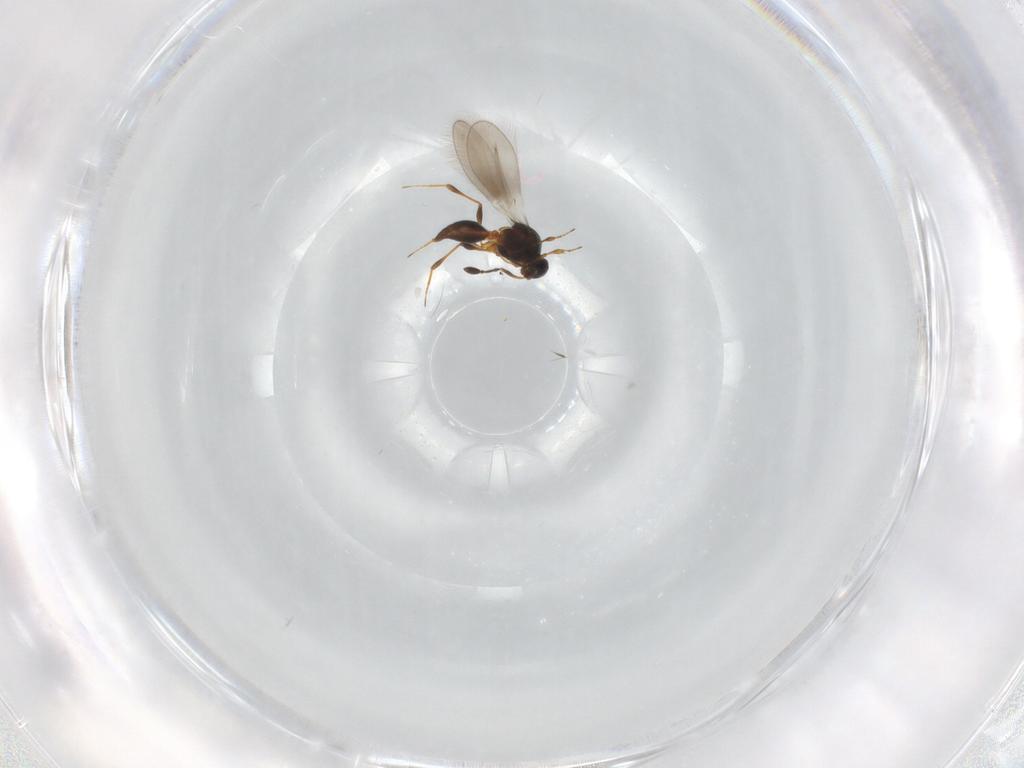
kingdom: Animalia
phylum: Arthropoda
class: Insecta
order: Hymenoptera
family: Platygastridae
